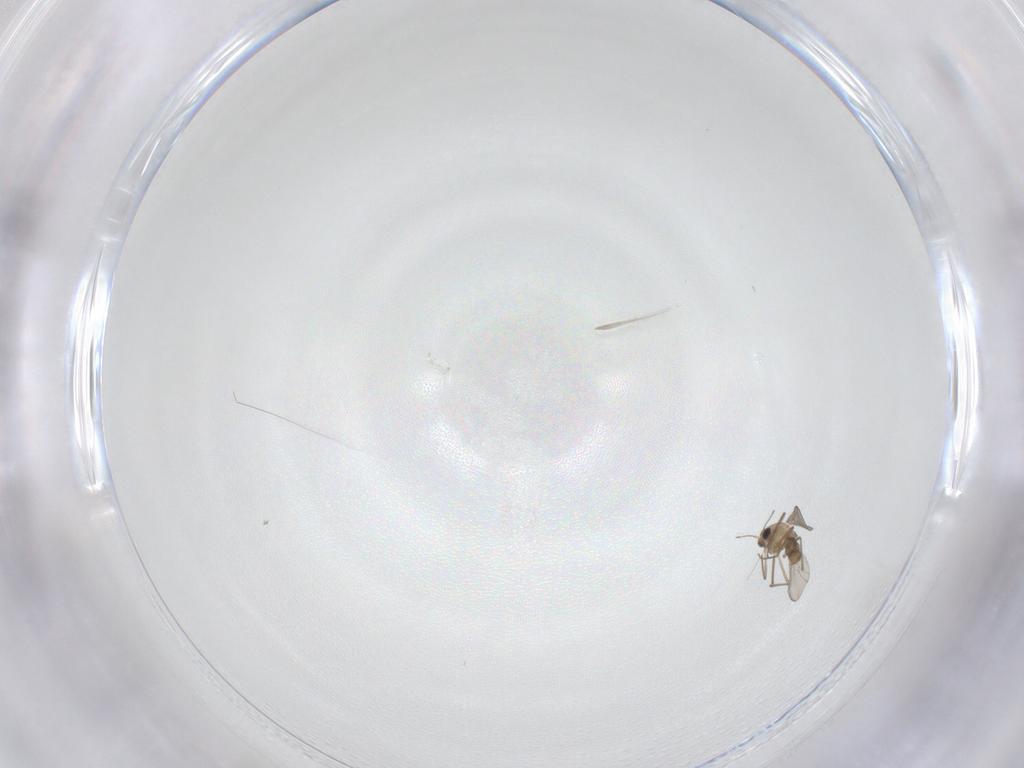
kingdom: Animalia
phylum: Arthropoda
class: Insecta
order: Diptera
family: Chironomidae
